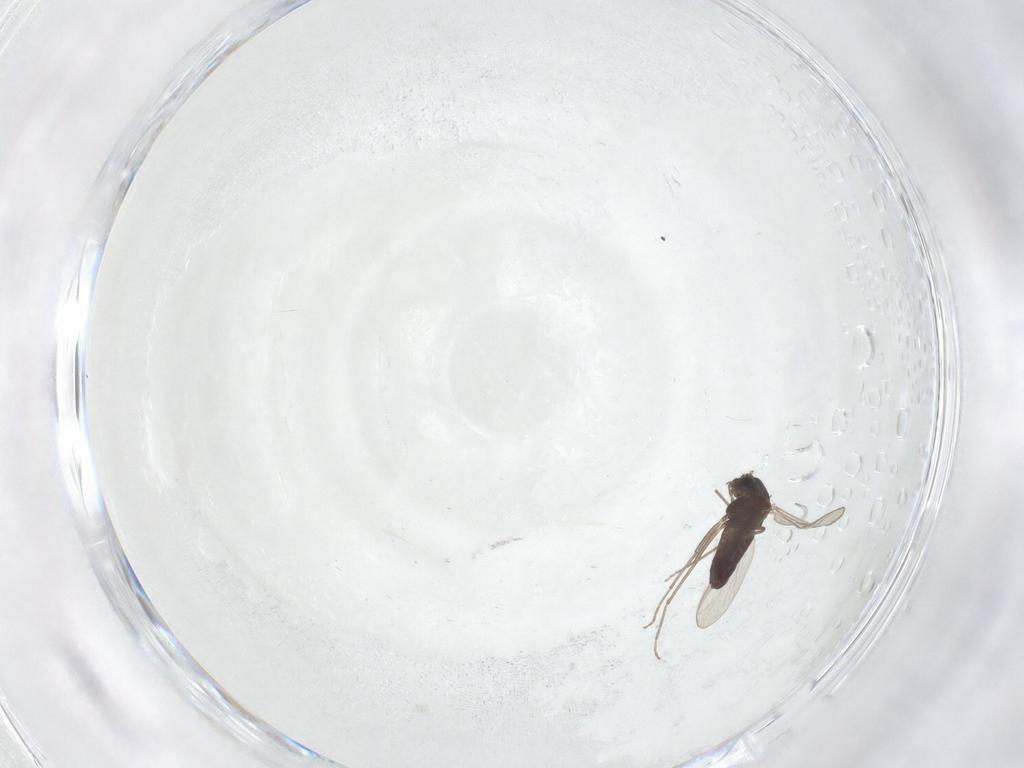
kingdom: Animalia
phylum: Arthropoda
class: Insecta
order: Diptera
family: Chironomidae
